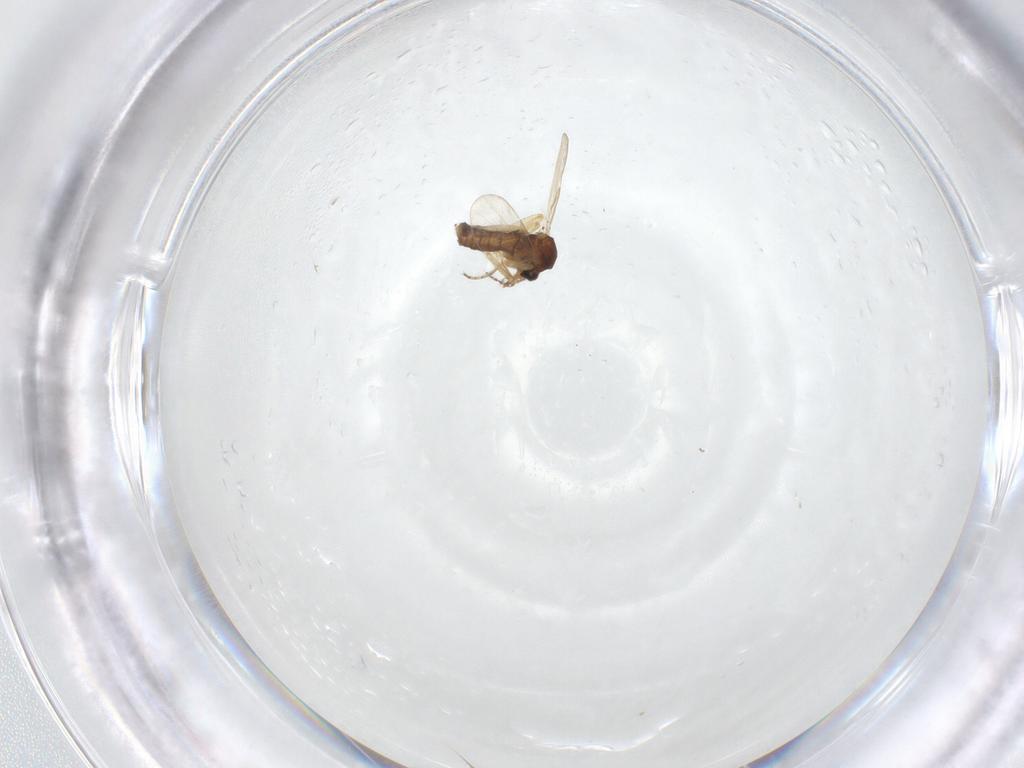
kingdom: Animalia
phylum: Arthropoda
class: Insecta
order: Diptera
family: Ceratopogonidae
